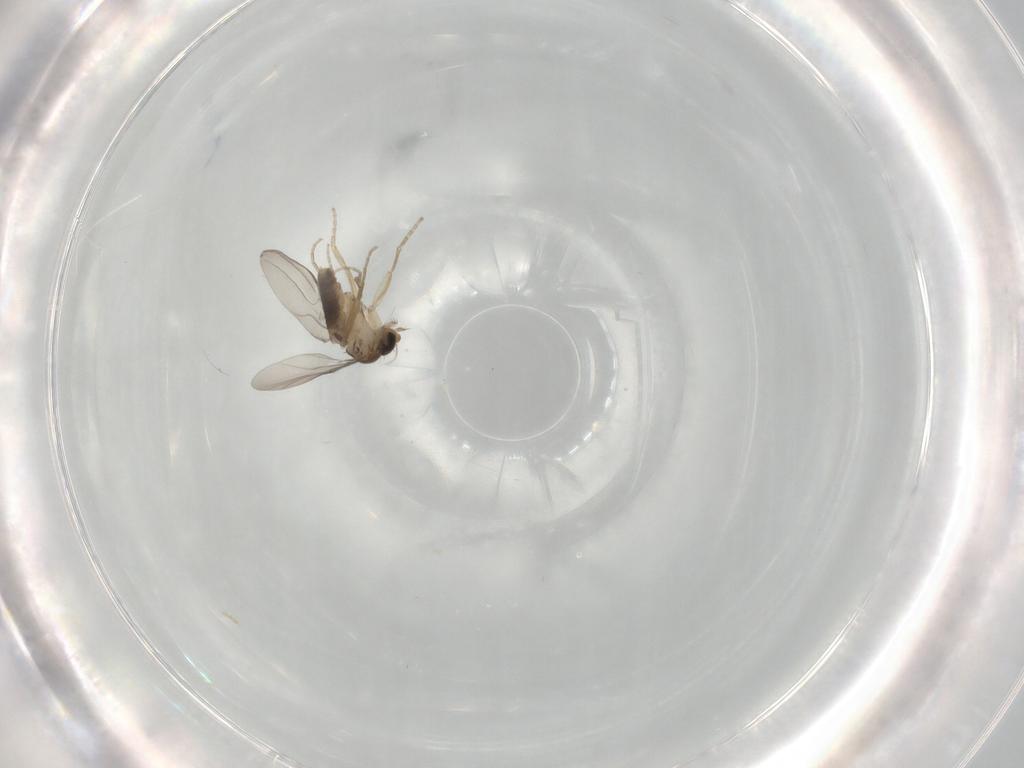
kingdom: Animalia
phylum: Arthropoda
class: Insecta
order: Diptera
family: Phoridae
